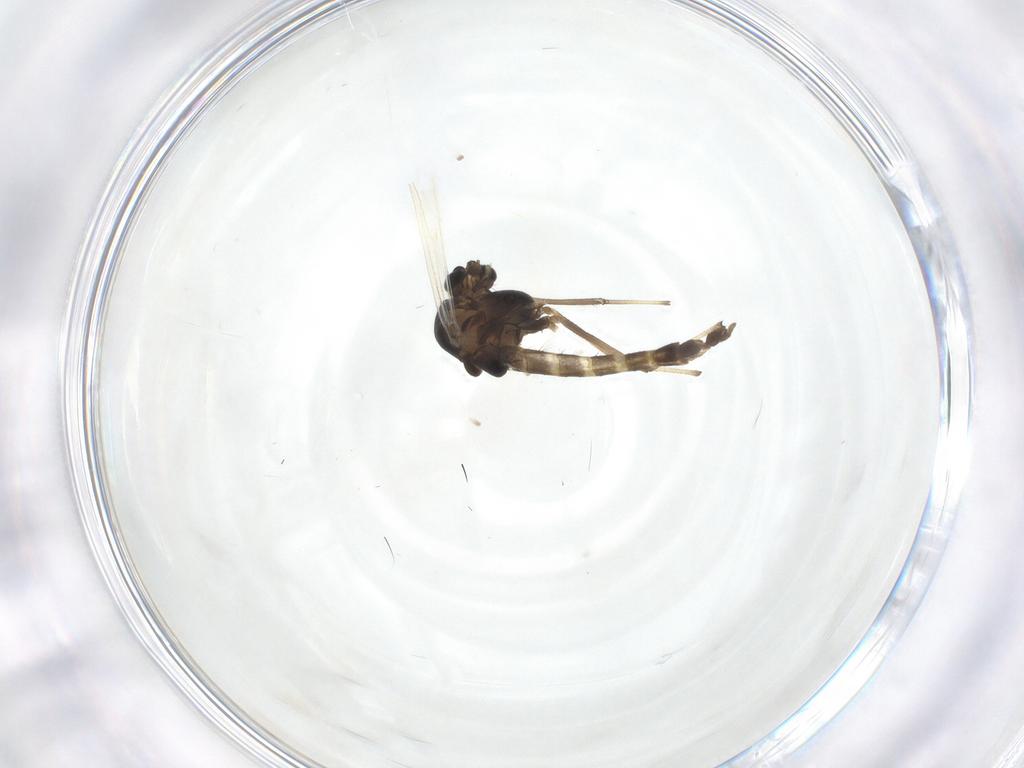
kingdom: Animalia
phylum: Arthropoda
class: Insecta
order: Diptera
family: Chironomidae
